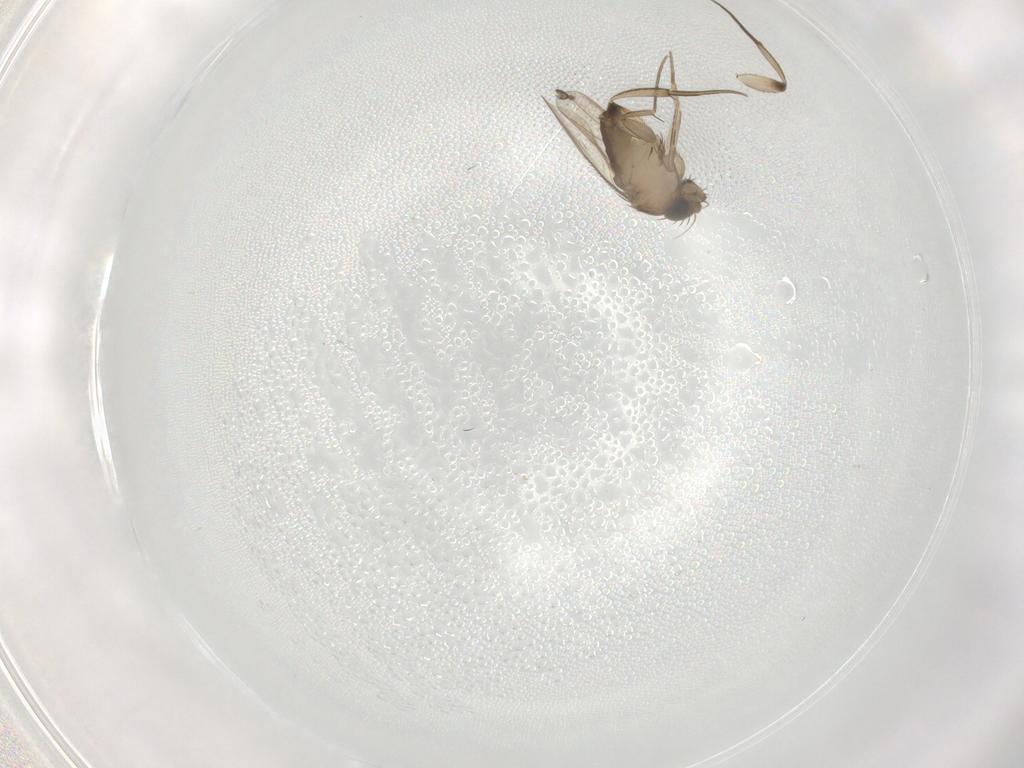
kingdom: Animalia
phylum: Arthropoda
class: Insecta
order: Diptera
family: Phoridae
